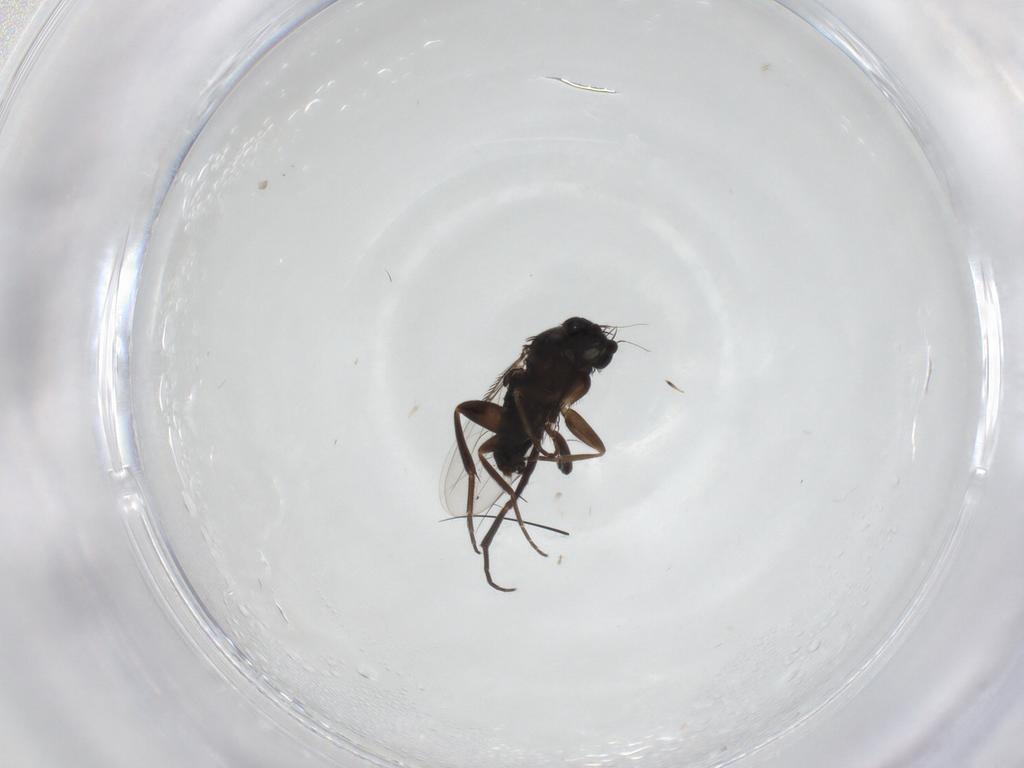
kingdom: Animalia
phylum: Arthropoda
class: Insecta
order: Diptera
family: Phoridae
